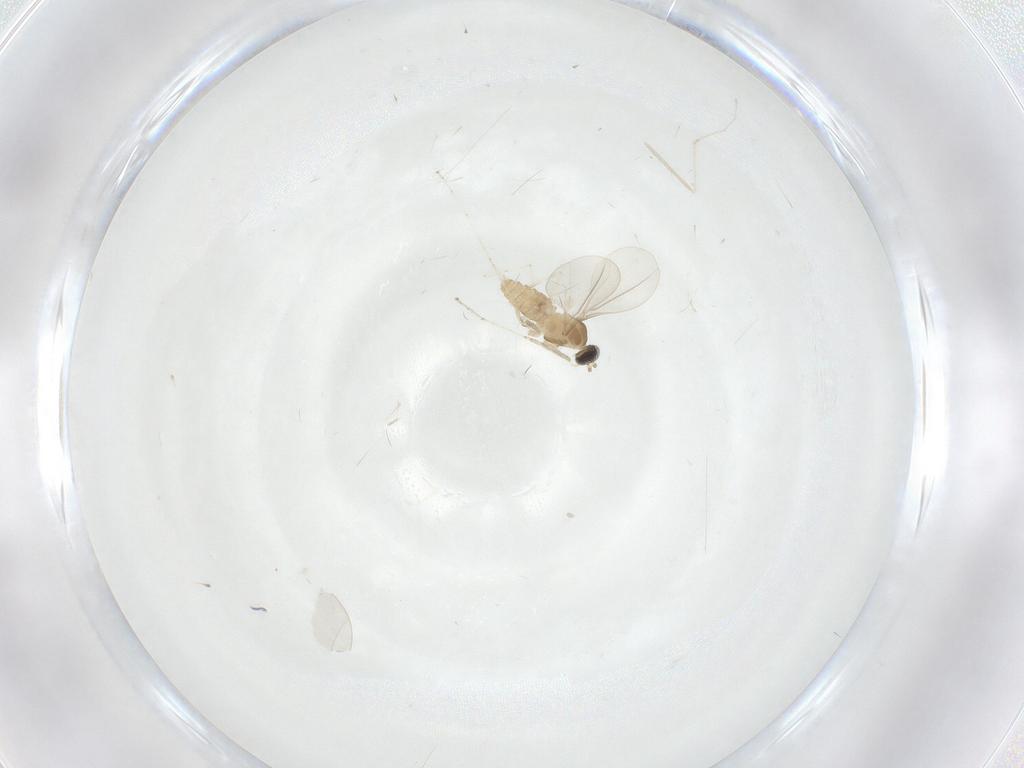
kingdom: Animalia
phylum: Arthropoda
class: Insecta
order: Diptera
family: Cecidomyiidae
